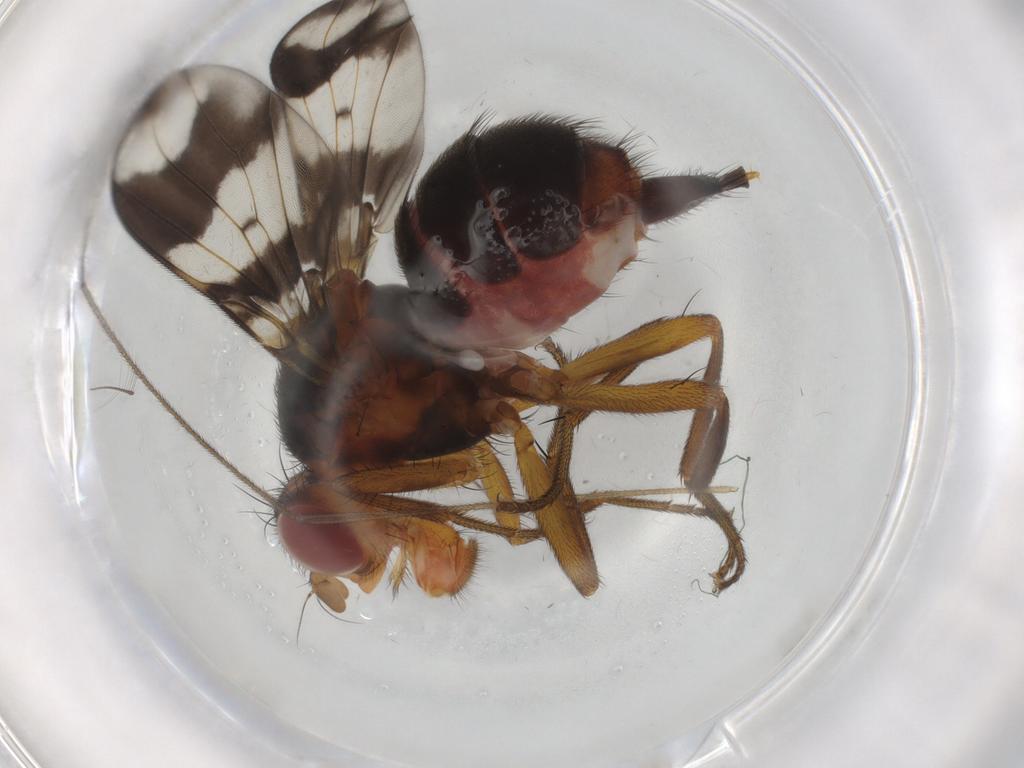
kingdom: Animalia
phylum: Arthropoda
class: Insecta
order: Diptera
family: Richardiidae
